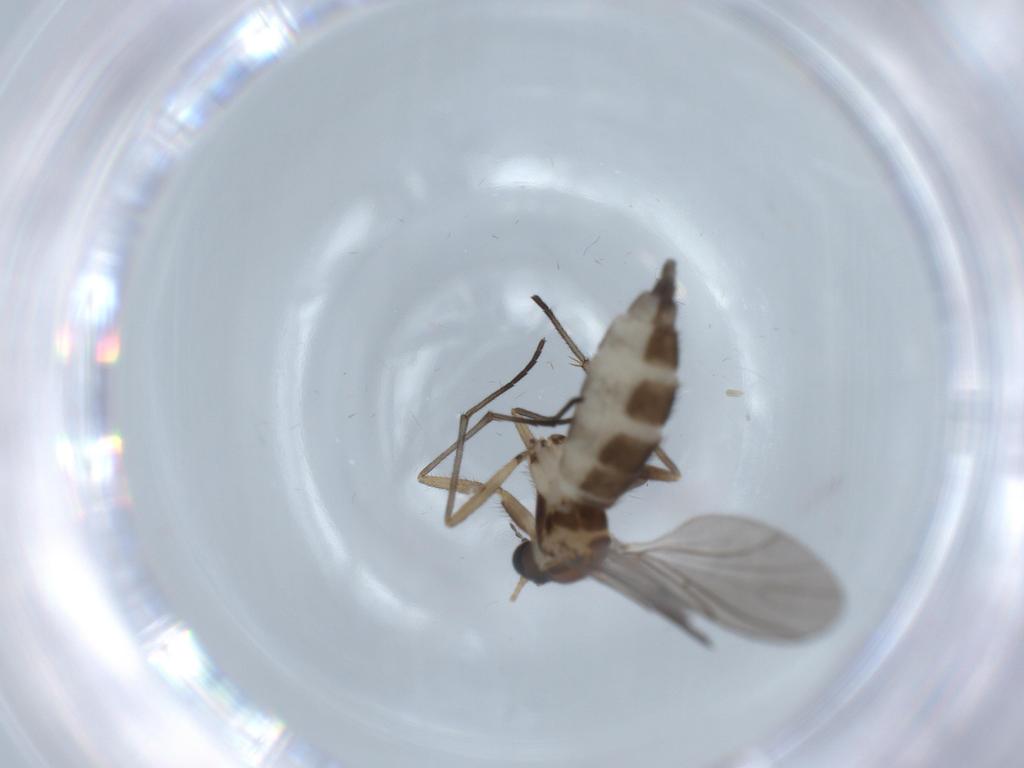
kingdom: Animalia
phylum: Arthropoda
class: Insecta
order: Diptera
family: Sciaridae
